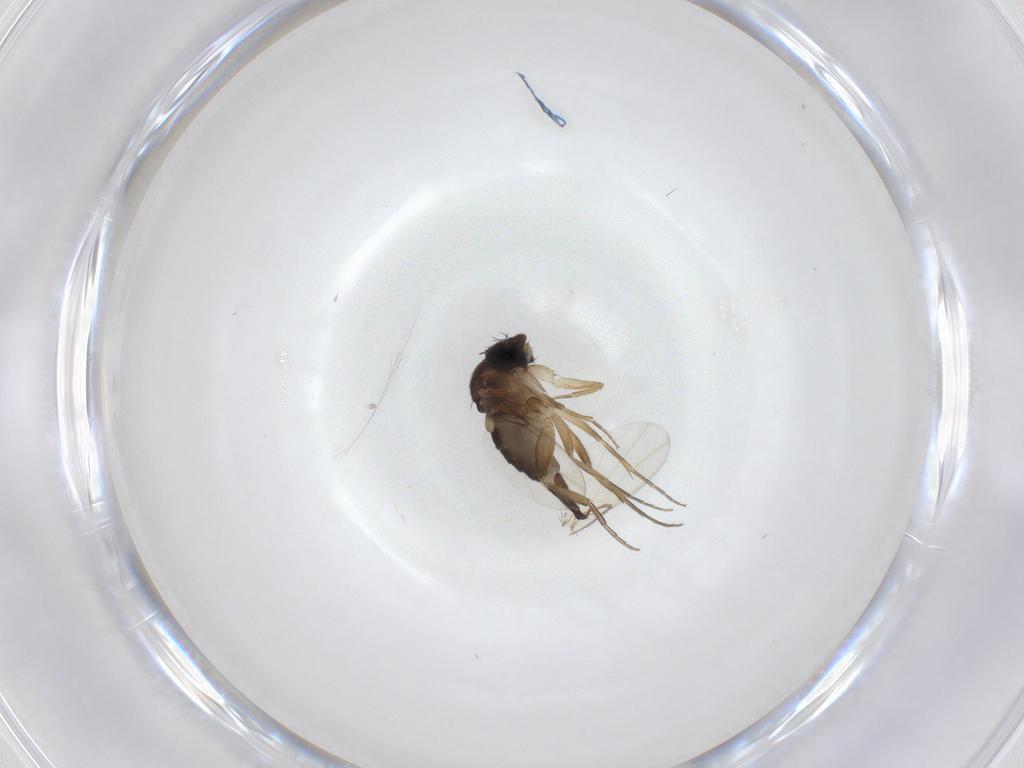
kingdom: Animalia
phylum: Arthropoda
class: Insecta
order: Diptera
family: Phoridae
